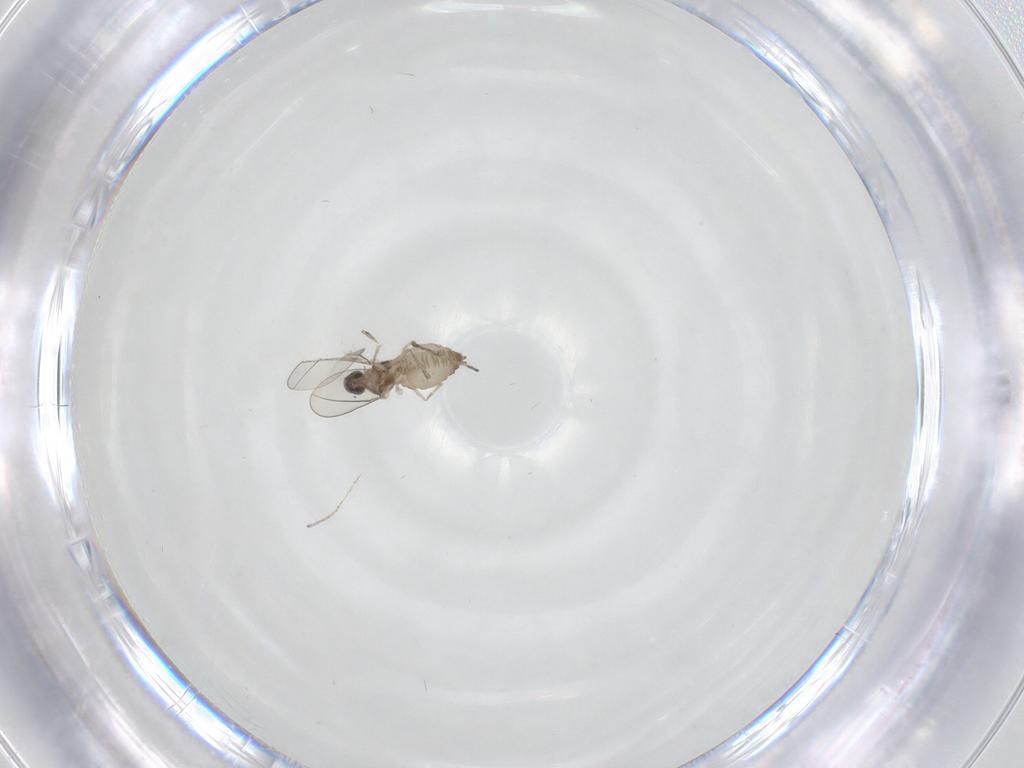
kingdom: Animalia
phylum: Arthropoda
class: Insecta
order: Diptera
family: Cecidomyiidae
